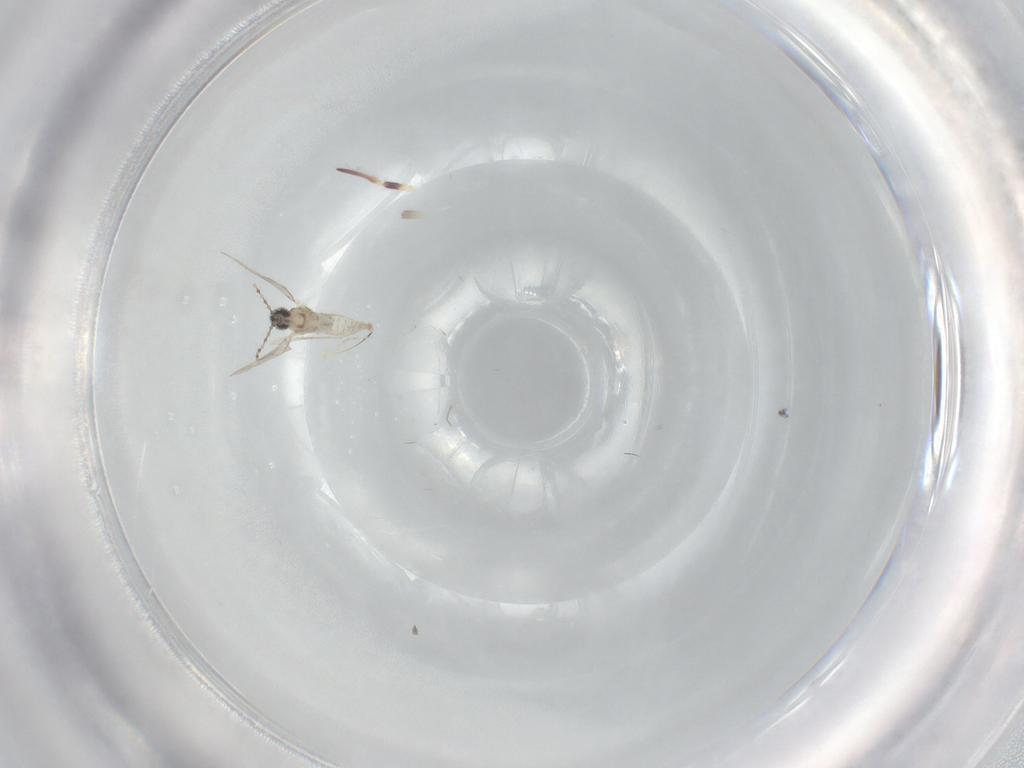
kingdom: Animalia
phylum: Arthropoda
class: Insecta
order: Diptera
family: Cecidomyiidae
